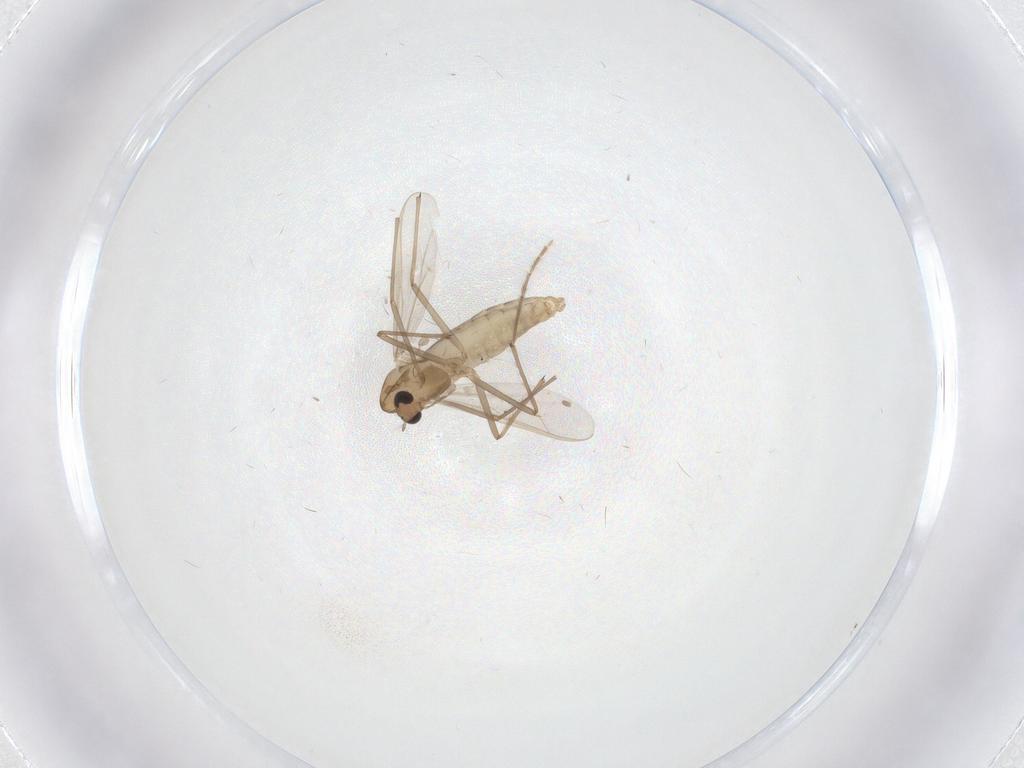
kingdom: Animalia
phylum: Arthropoda
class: Insecta
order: Diptera
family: Chironomidae
